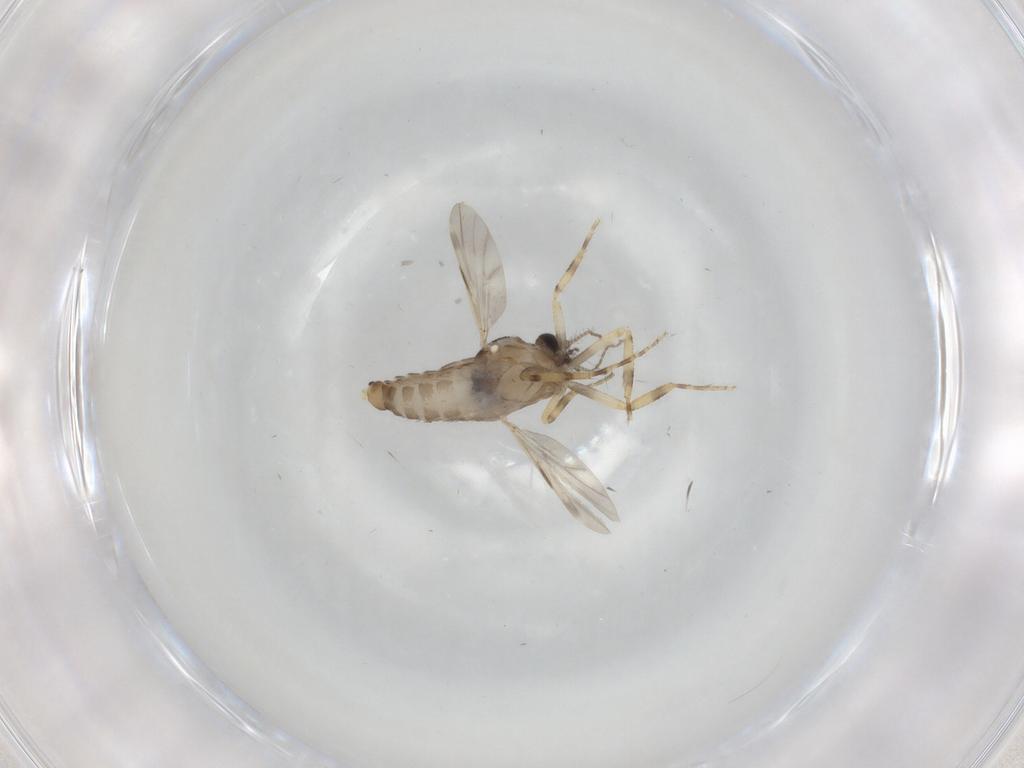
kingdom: Animalia
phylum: Arthropoda
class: Insecta
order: Diptera
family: Ceratopogonidae
